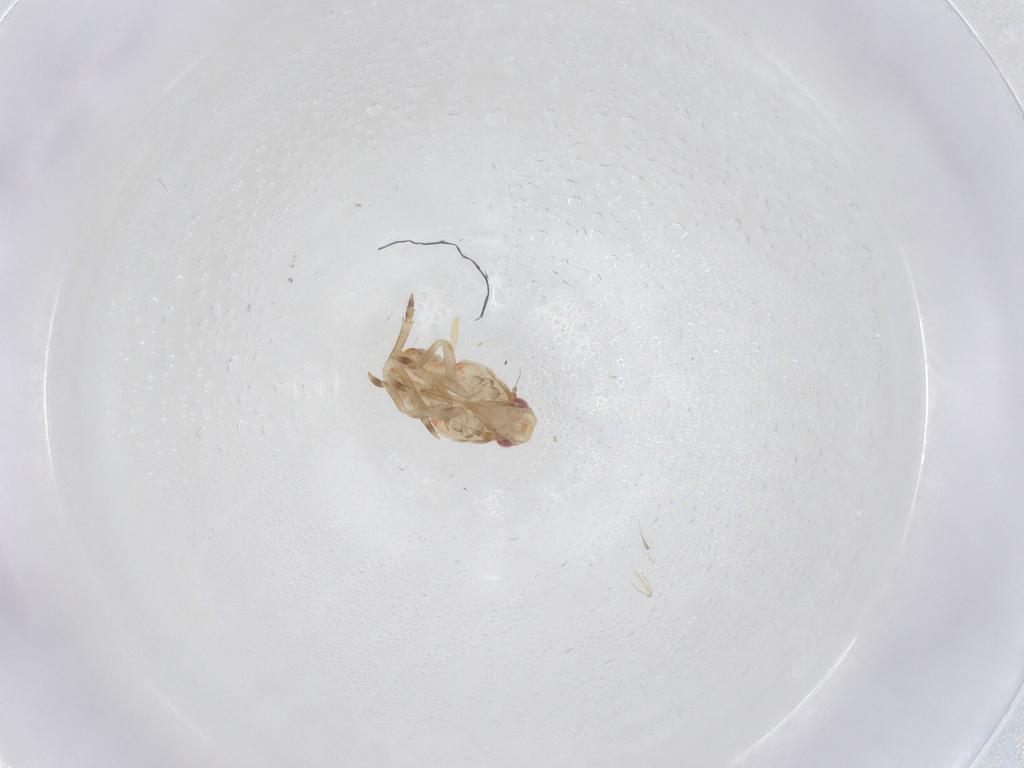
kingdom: Animalia
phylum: Arthropoda
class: Insecta
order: Hemiptera
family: Flatidae
